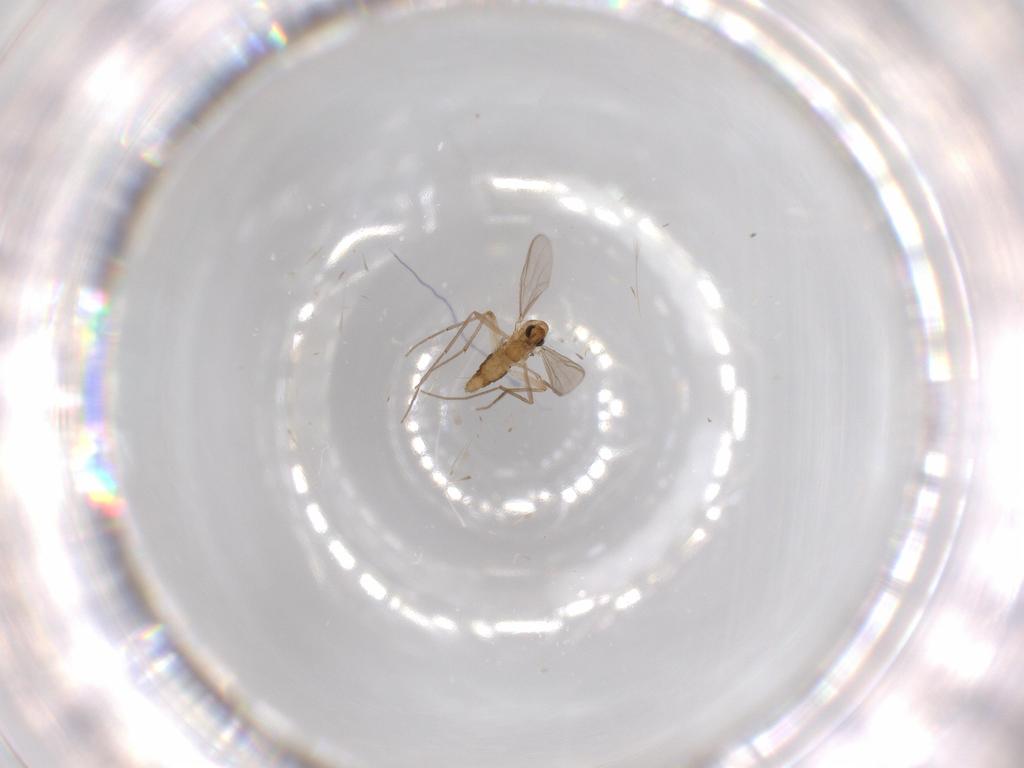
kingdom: Animalia
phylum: Arthropoda
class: Insecta
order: Diptera
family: Chironomidae
